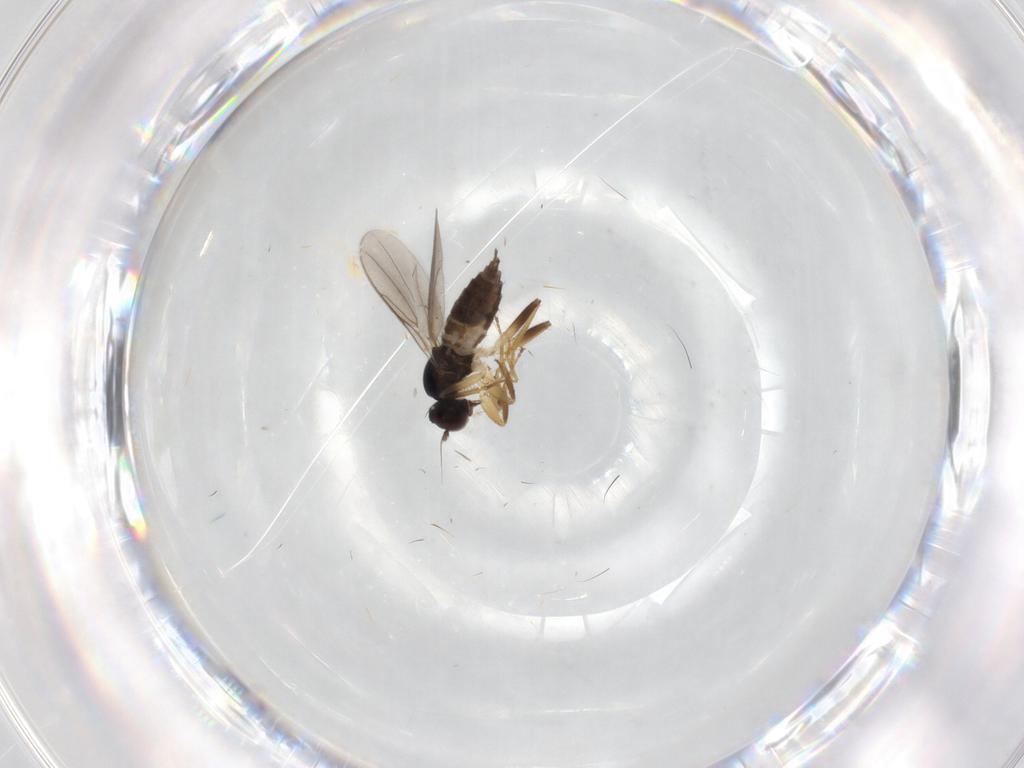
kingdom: Animalia
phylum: Arthropoda
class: Insecta
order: Diptera
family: Hybotidae
